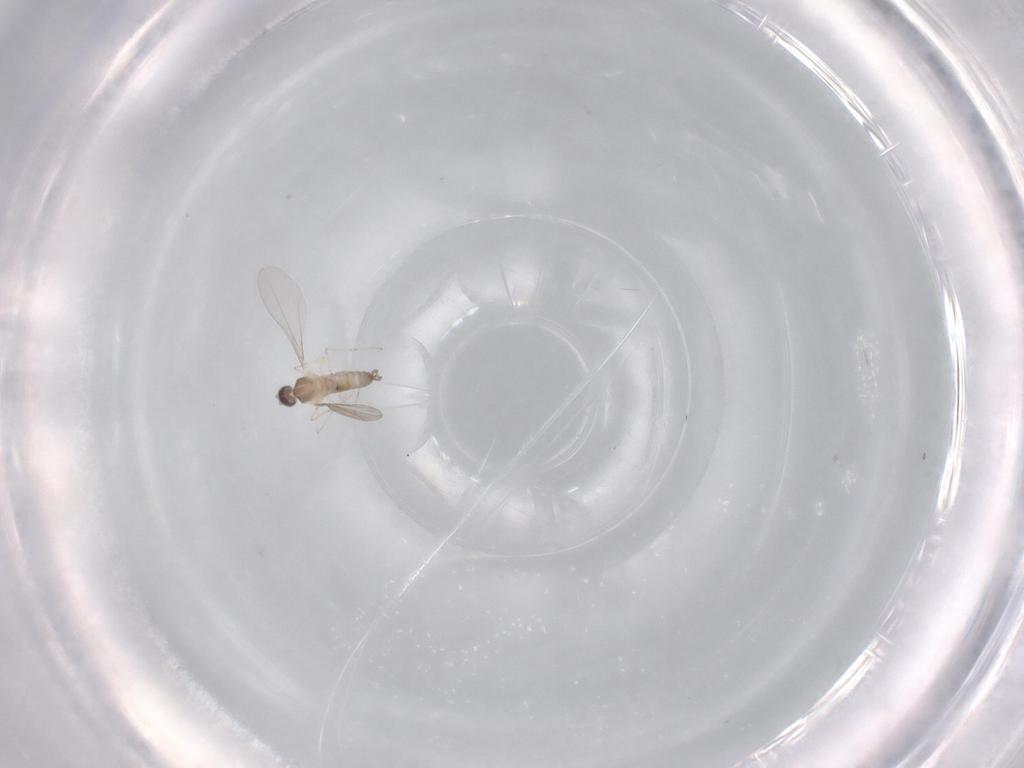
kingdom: Animalia
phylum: Arthropoda
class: Insecta
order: Diptera
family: Cecidomyiidae
